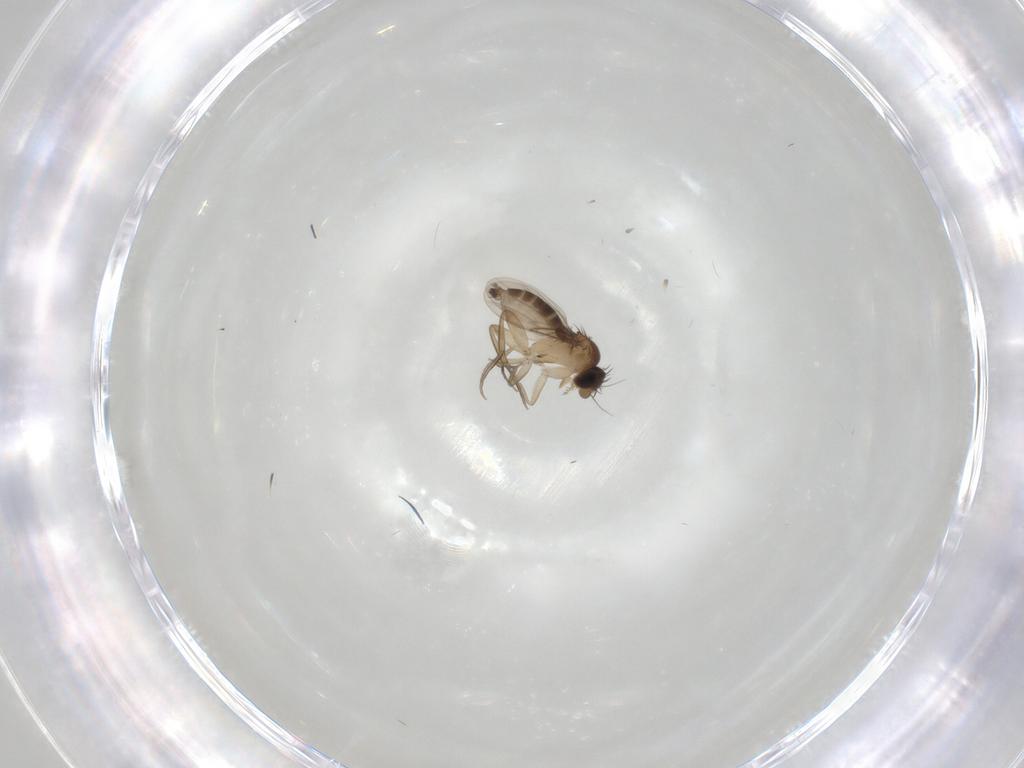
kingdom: Animalia
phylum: Arthropoda
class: Insecta
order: Diptera
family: Phoridae
